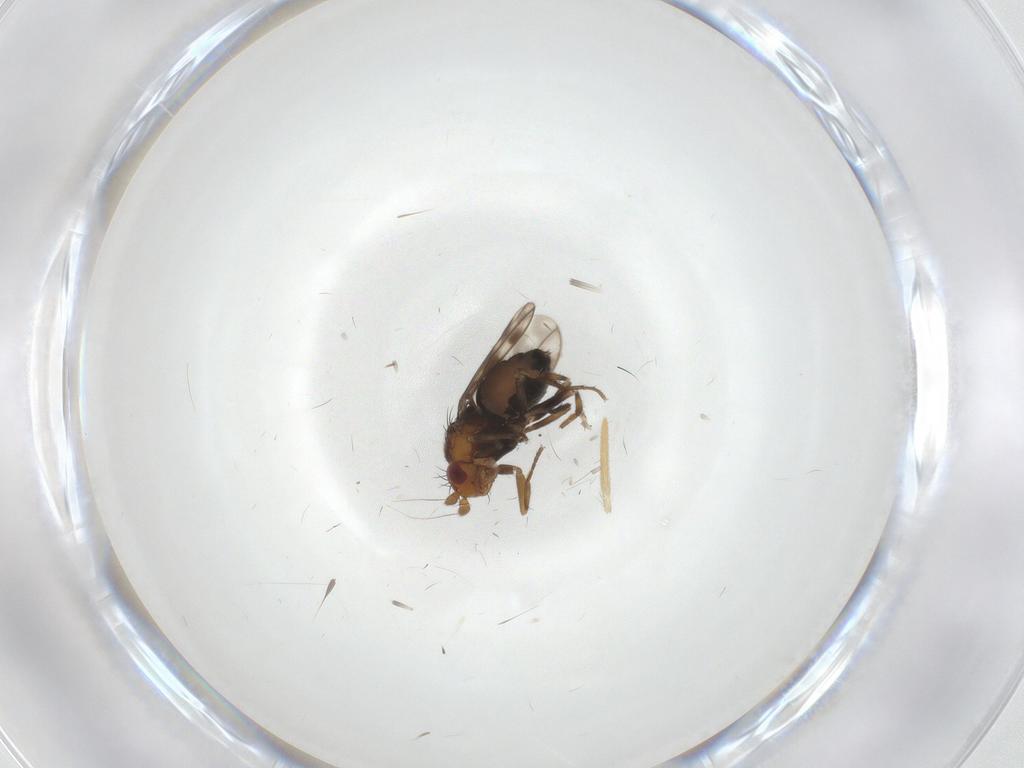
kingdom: Animalia
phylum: Arthropoda
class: Insecta
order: Diptera
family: Sphaeroceridae
